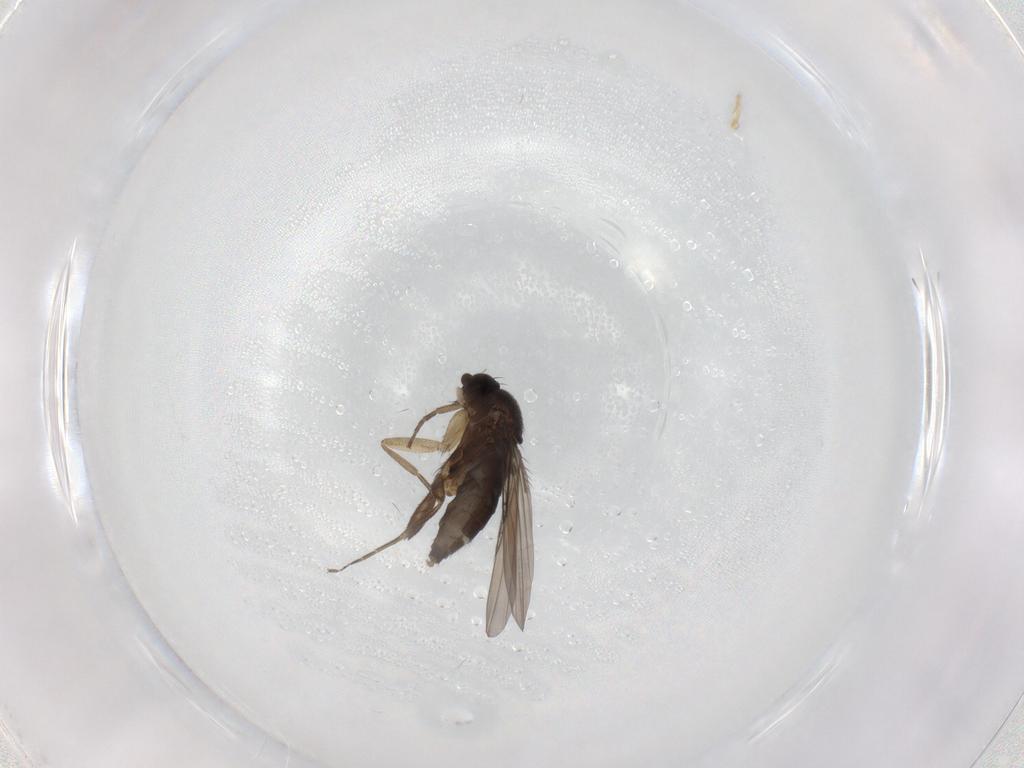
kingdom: Animalia
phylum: Arthropoda
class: Insecta
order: Diptera
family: Phoridae
